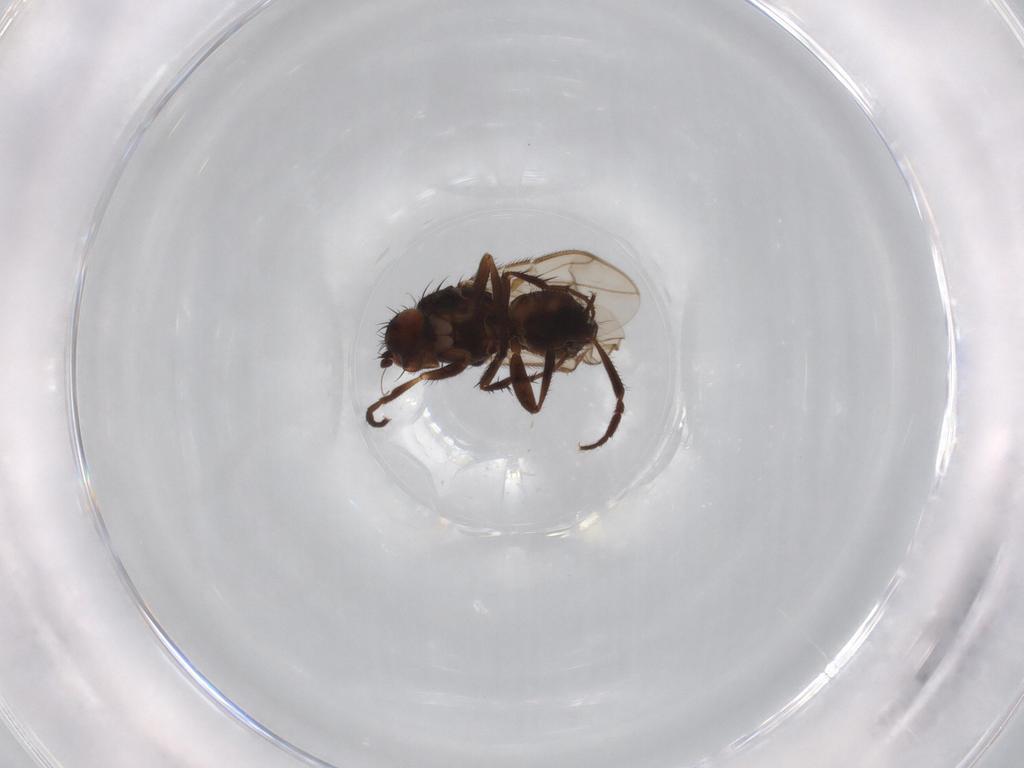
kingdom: Animalia
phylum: Arthropoda
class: Insecta
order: Diptera
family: Sphaeroceridae
